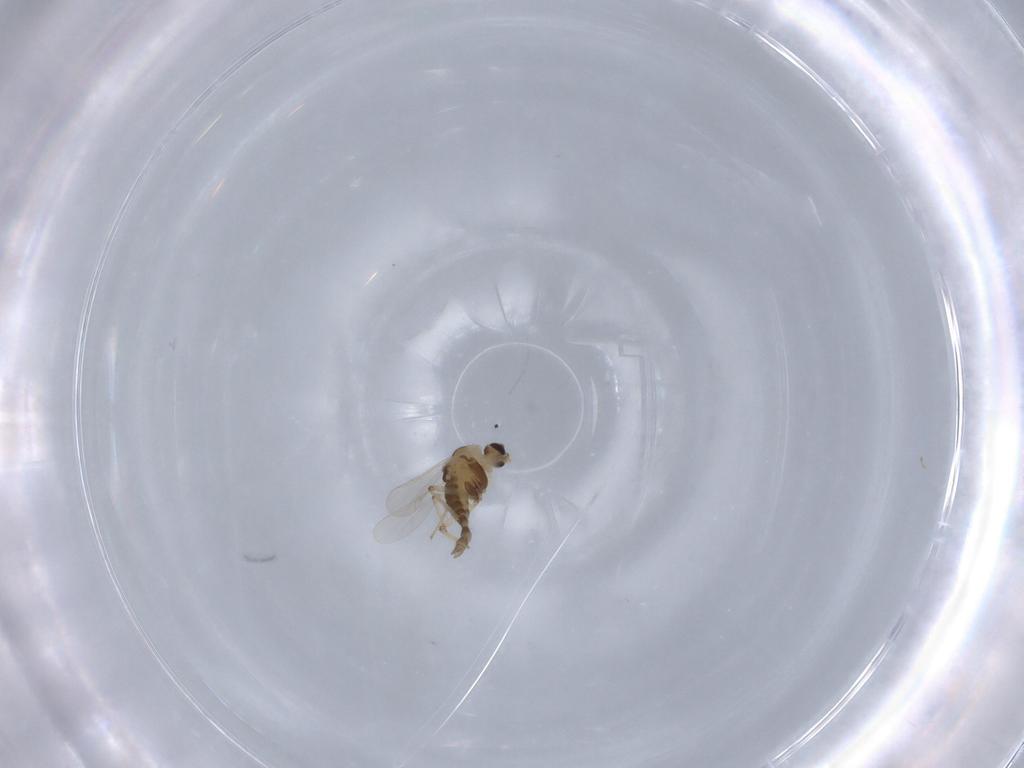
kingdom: Animalia
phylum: Arthropoda
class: Insecta
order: Diptera
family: Chironomidae
